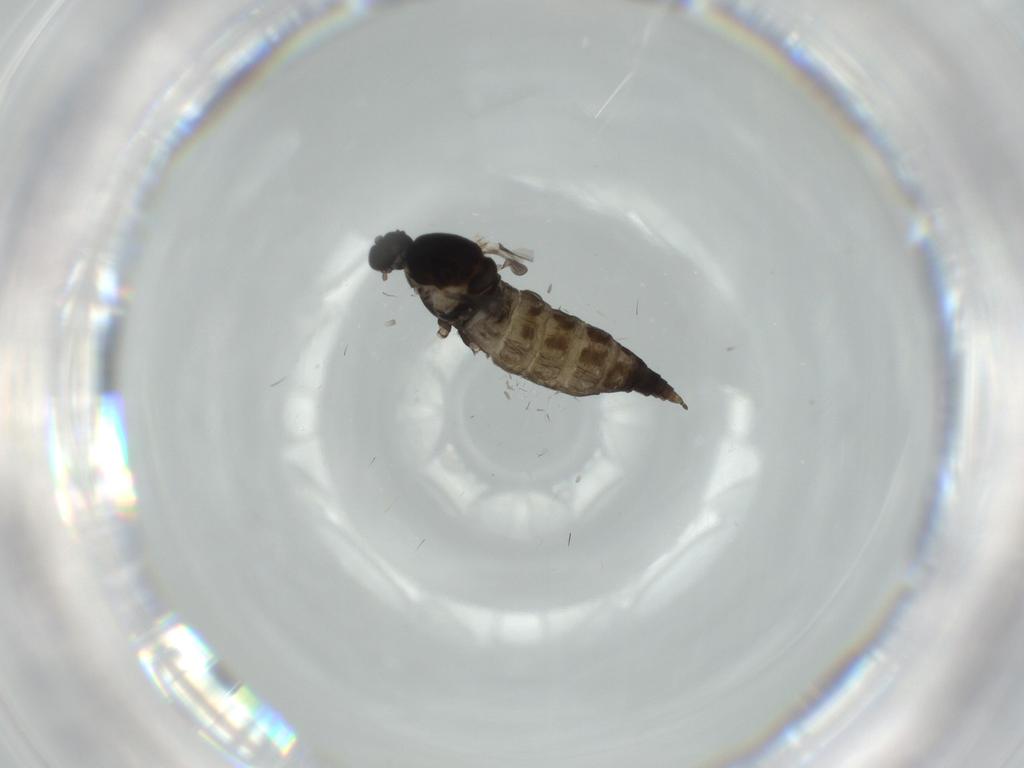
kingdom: Animalia
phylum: Arthropoda
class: Insecta
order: Diptera
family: Cecidomyiidae
